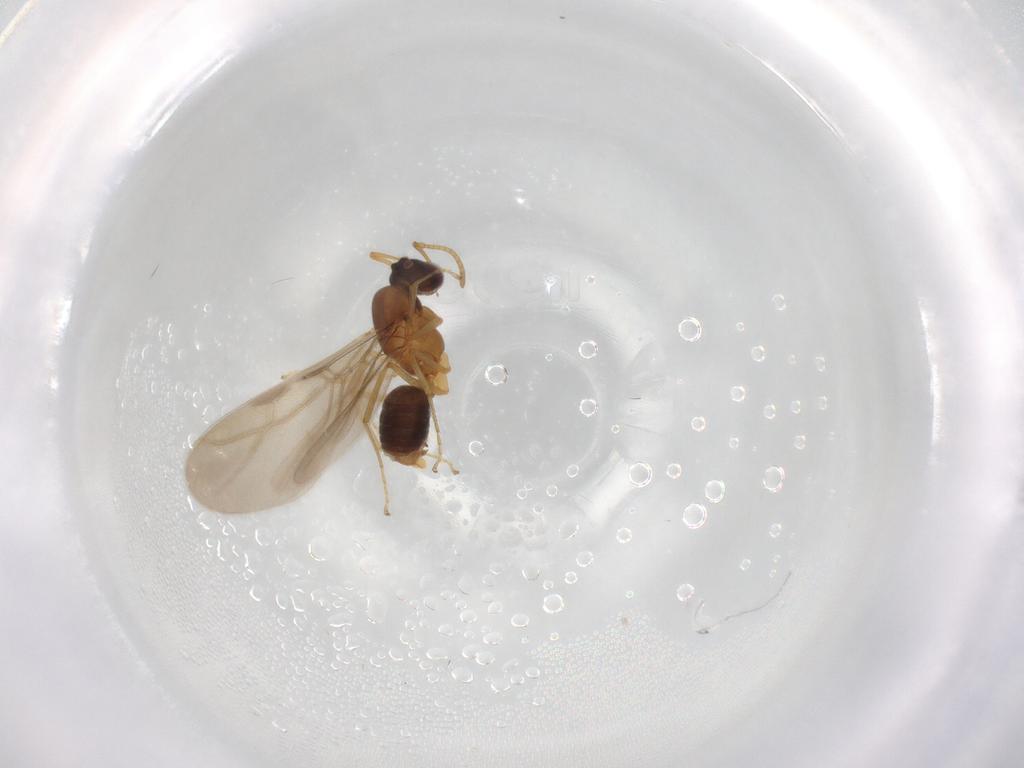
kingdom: Animalia
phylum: Arthropoda
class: Insecta
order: Hymenoptera
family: Formicidae
